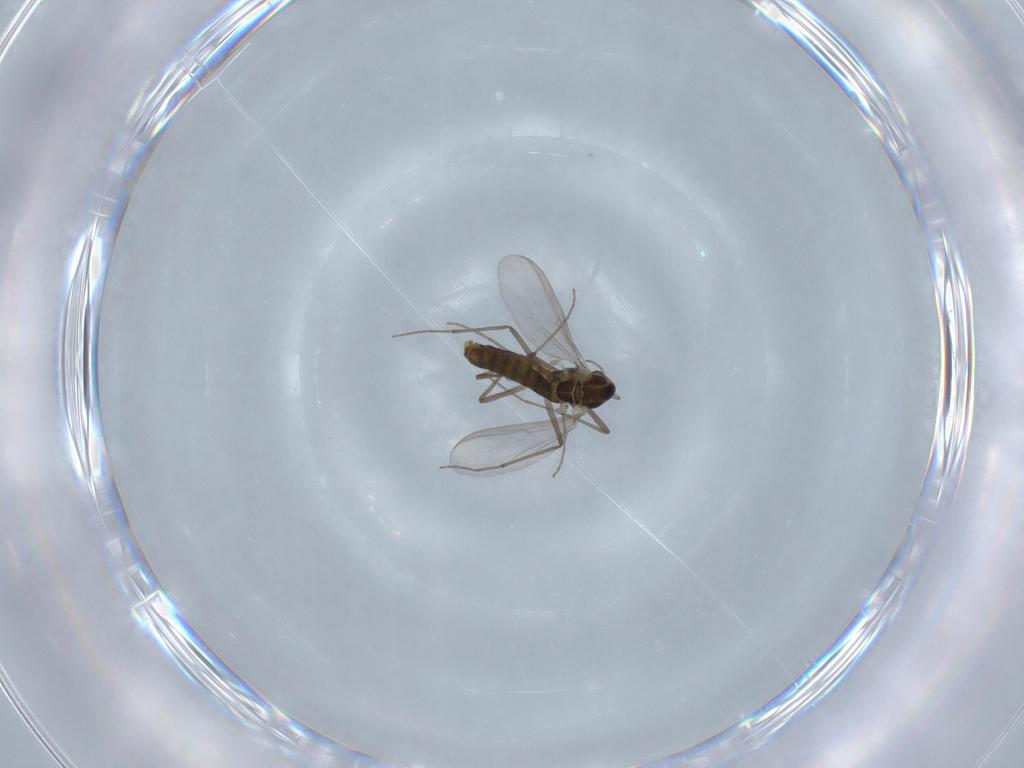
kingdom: Animalia
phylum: Arthropoda
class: Insecta
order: Diptera
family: Chironomidae
